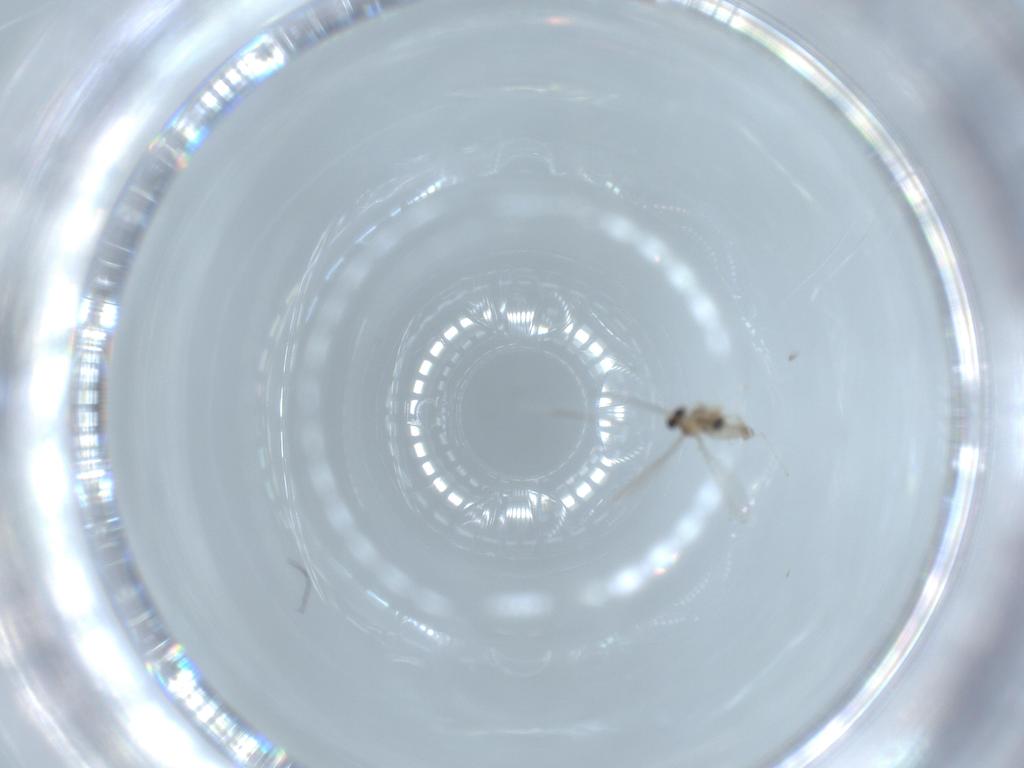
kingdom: Animalia
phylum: Arthropoda
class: Insecta
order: Diptera
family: Cecidomyiidae
